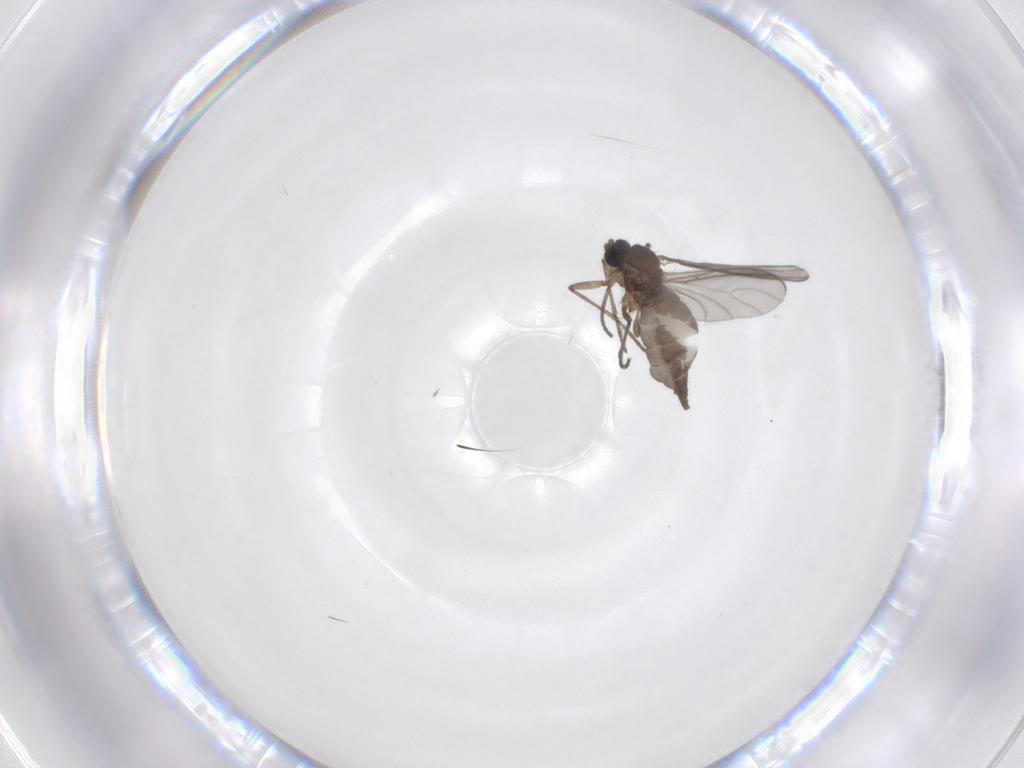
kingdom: Animalia
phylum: Arthropoda
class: Insecta
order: Diptera
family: Sciaridae
